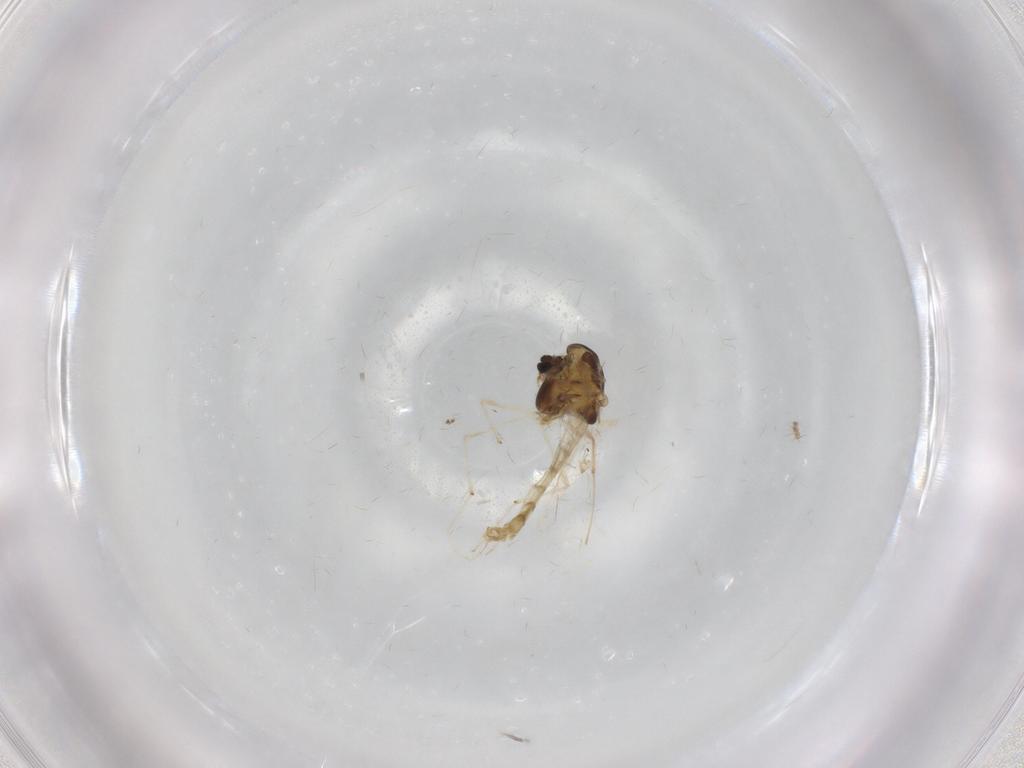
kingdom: Animalia
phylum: Arthropoda
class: Insecta
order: Diptera
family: Chironomidae
